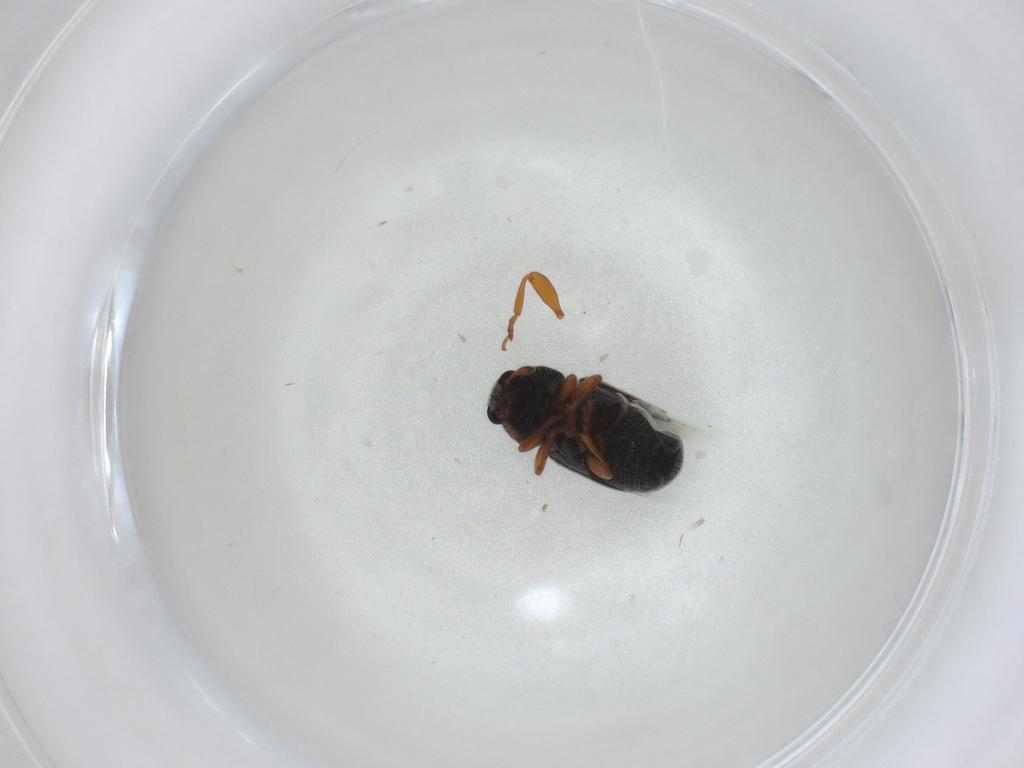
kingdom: Animalia
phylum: Arthropoda
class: Insecta
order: Coleoptera
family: Anthribidae
